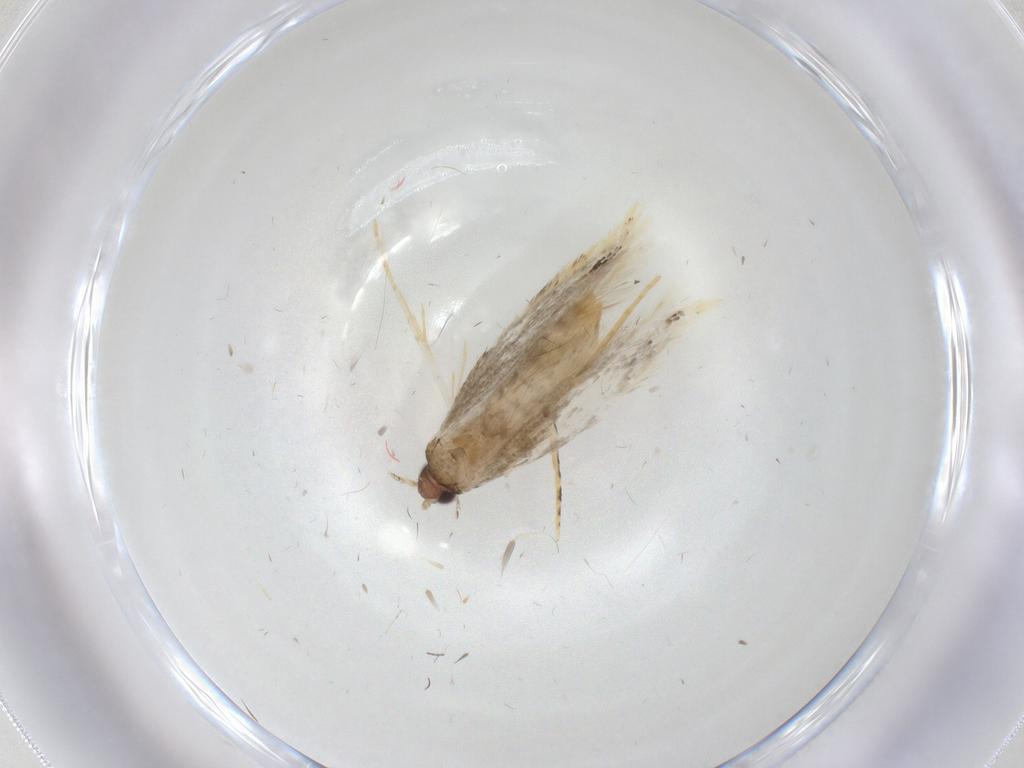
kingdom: Animalia
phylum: Arthropoda
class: Insecta
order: Lepidoptera
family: Tineidae
